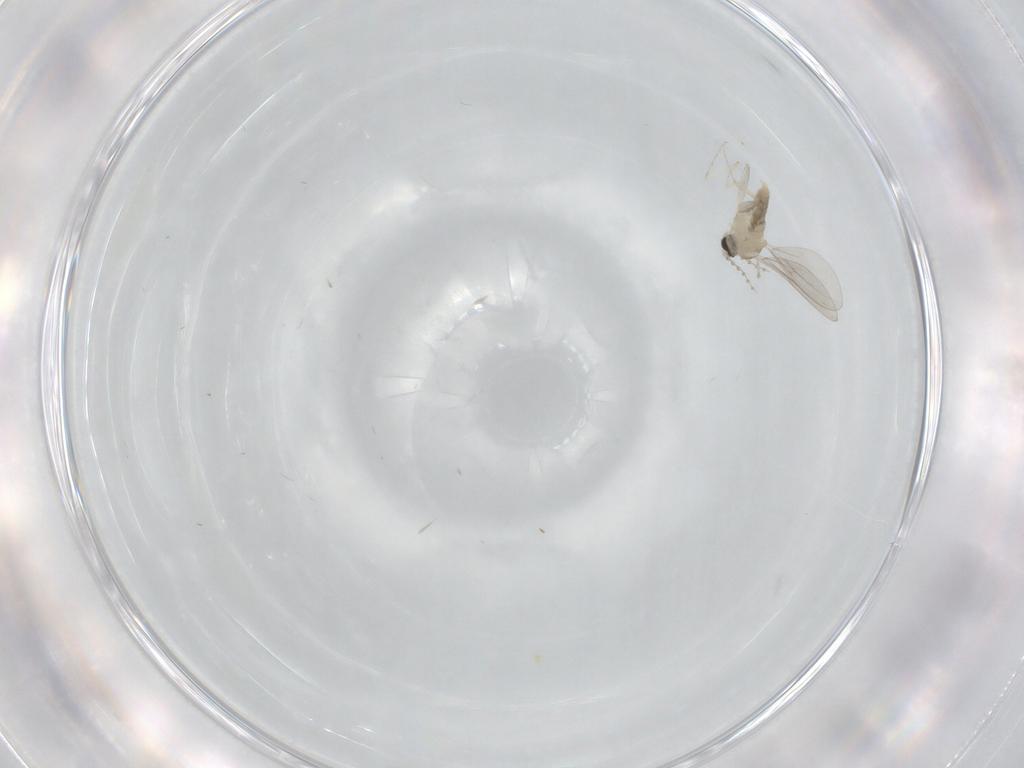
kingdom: Animalia
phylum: Arthropoda
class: Insecta
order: Diptera
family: Cecidomyiidae
